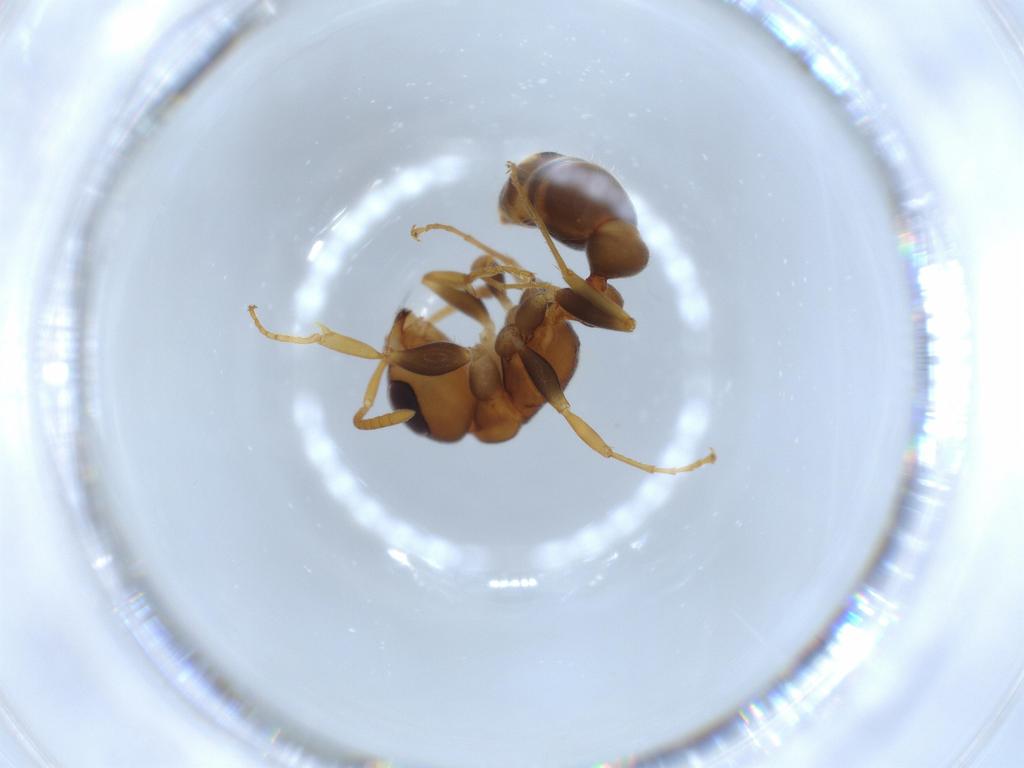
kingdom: Animalia
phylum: Arthropoda
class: Insecta
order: Hymenoptera
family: Formicidae
